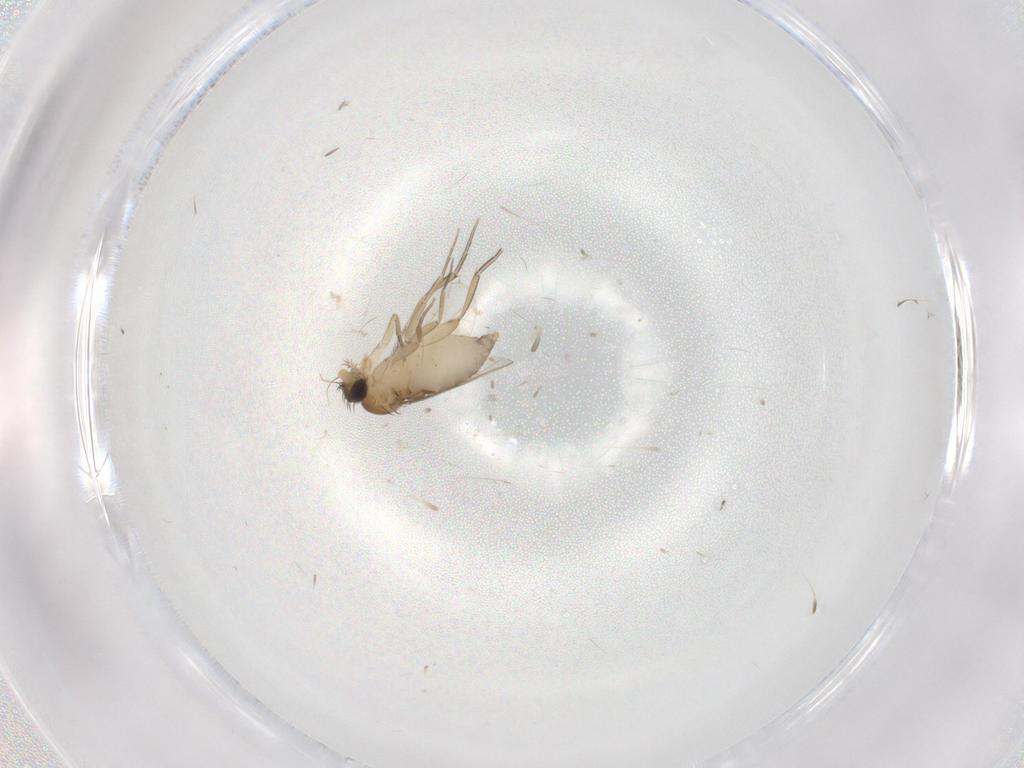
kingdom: Animalia
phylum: Arthropoda
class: Insecta
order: Diptera
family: Phoridae
